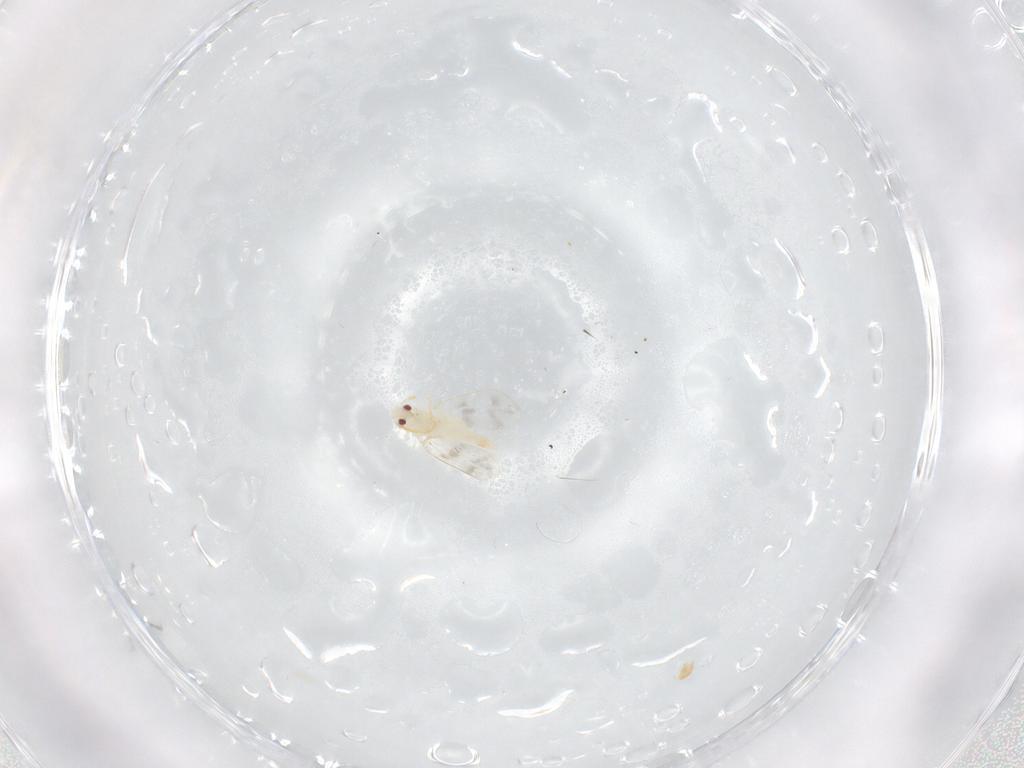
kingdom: Animalia
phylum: Arthropoda
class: Insecta
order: Hemiptera
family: Aleyrodidae
